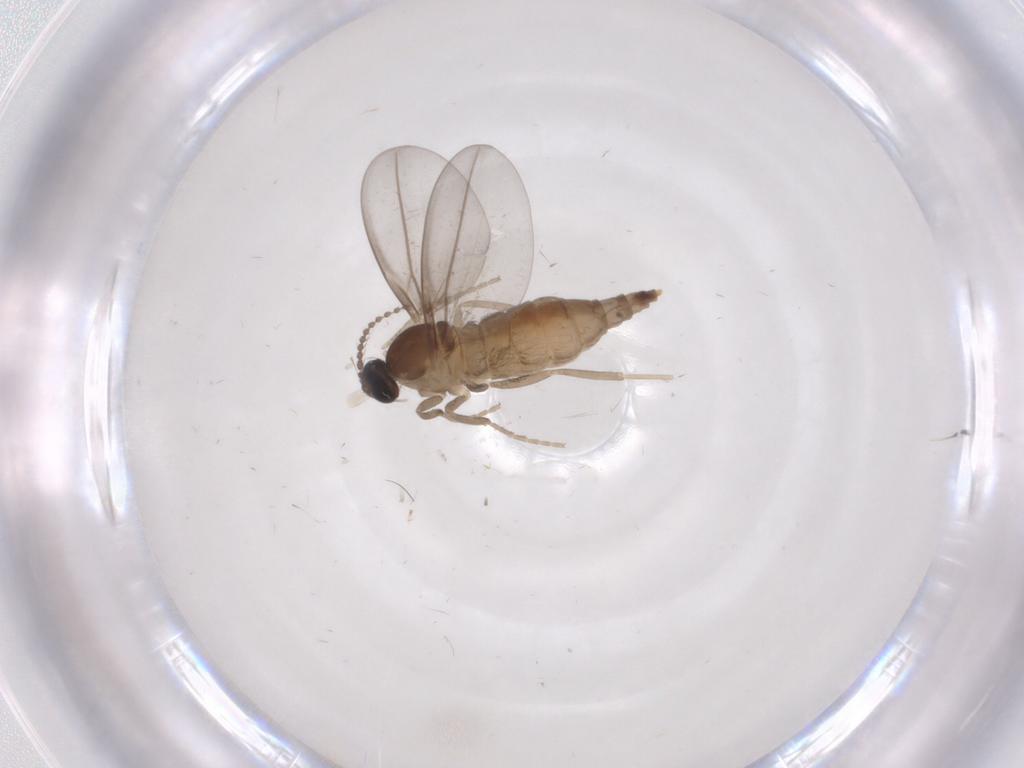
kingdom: Animalia
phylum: Arthropoda
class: Insecta
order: Diptera
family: Cecidomyiidae
